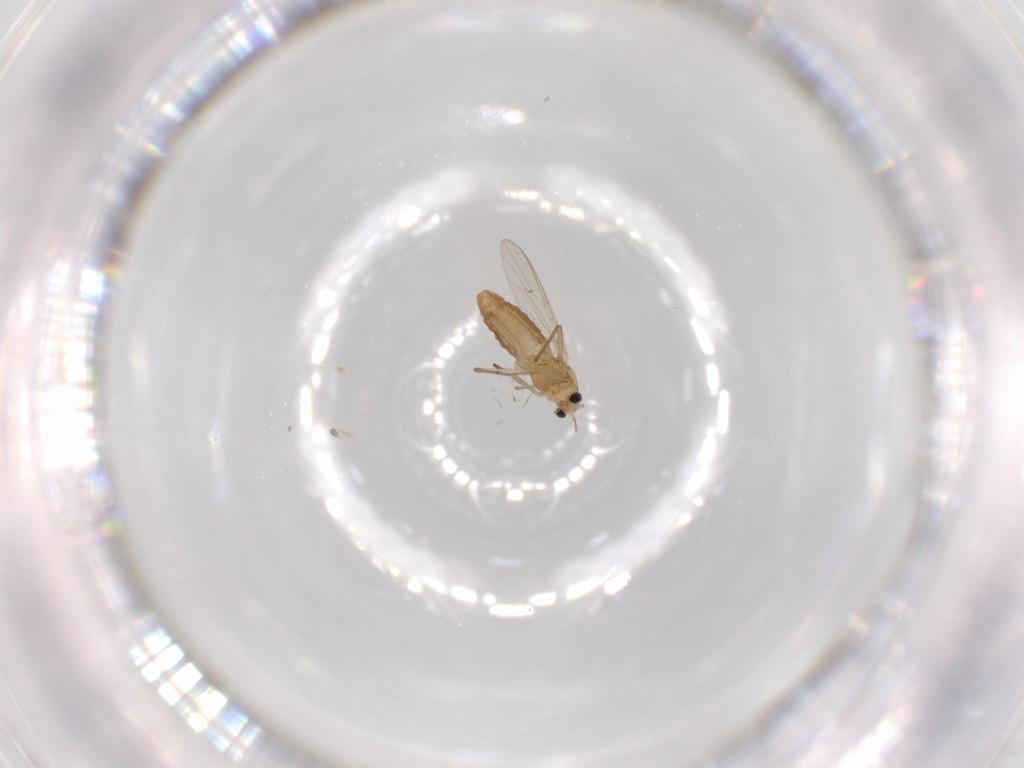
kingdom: Animalia
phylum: Arthropoda
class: Insecta
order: Diptera
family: Chironomidae
